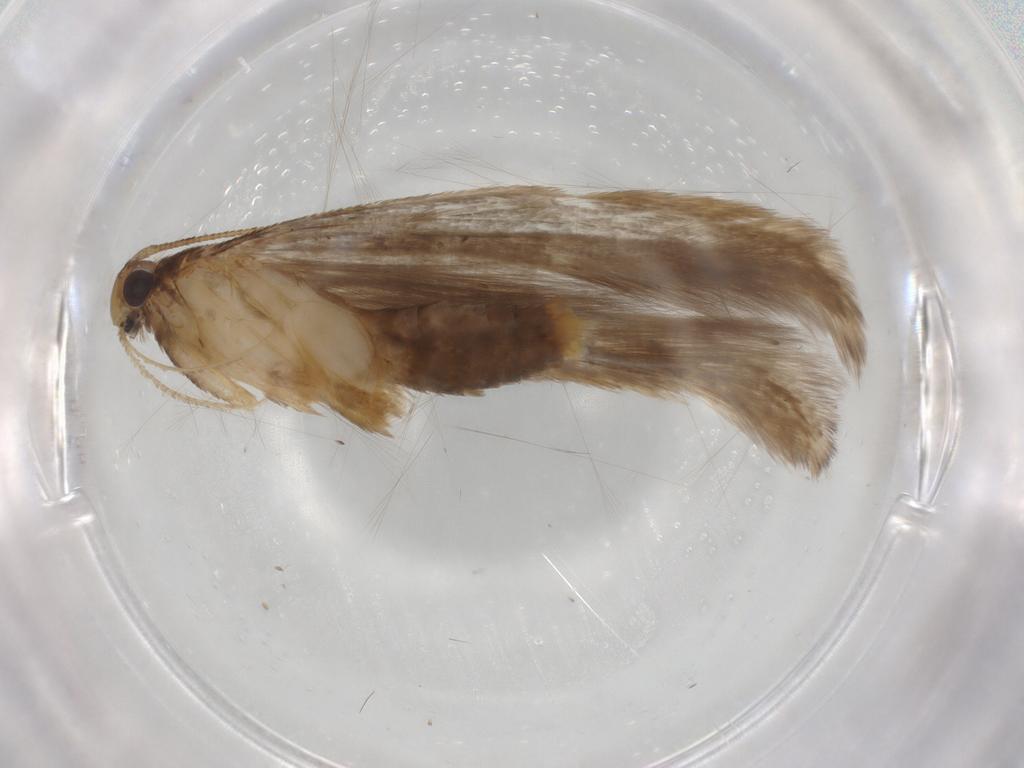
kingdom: Animalia
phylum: Arthropoda
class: Insecta
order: Lepidoptera
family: Gelechiidae
